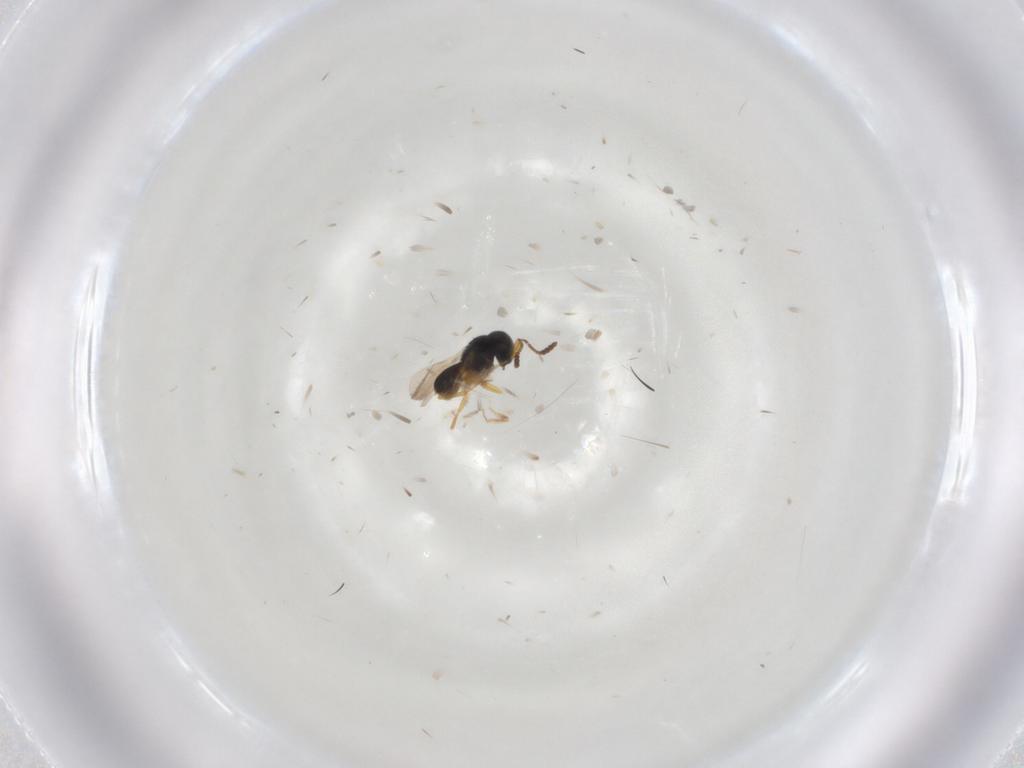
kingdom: Animalia
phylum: Arthropoda
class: Insecta
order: Hymenoptera
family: Scelionidae
